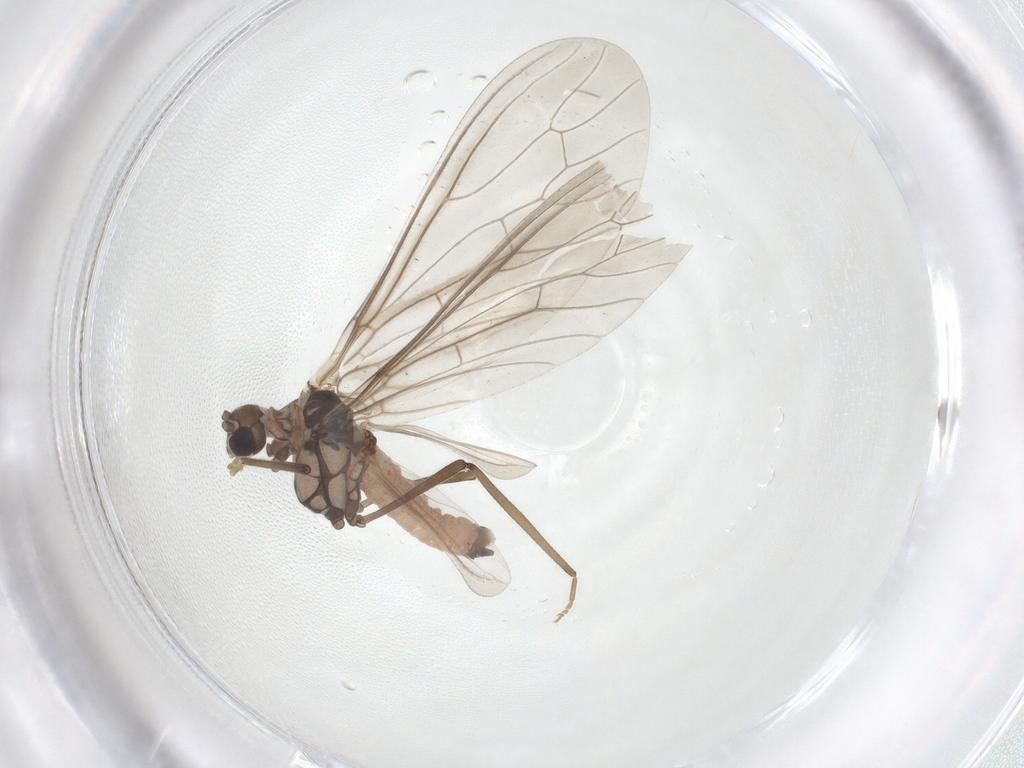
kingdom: Animalia
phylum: Arthropoda
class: Insecta
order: Neuroptera
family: Coniopterygidae
